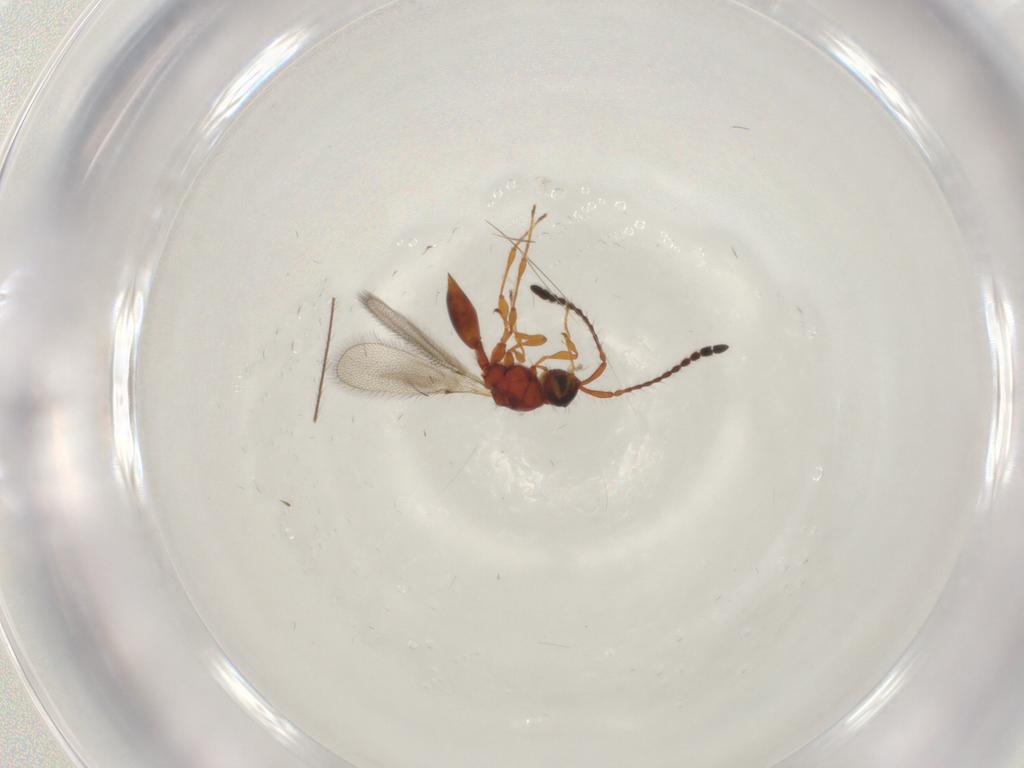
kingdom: Animalia
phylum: Arthropoda
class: Insecta
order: Hymenoptera
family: Diapriidae
